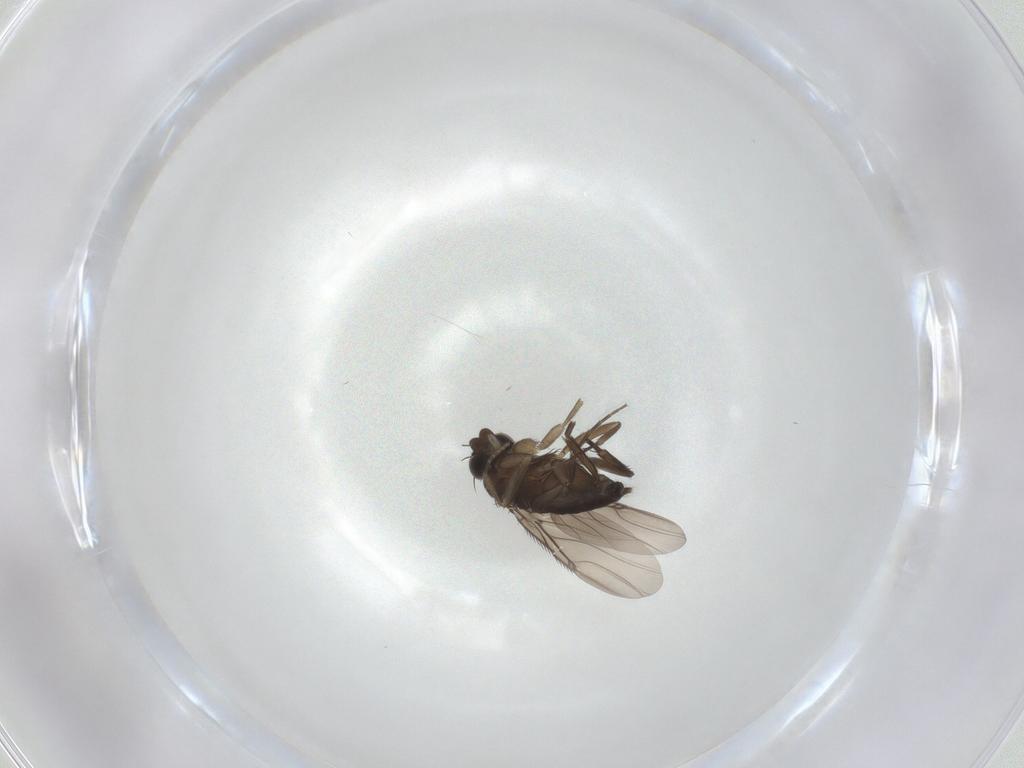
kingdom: Animalia
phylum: Arthropoda
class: Insecta
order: Diptera
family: Phoridae
